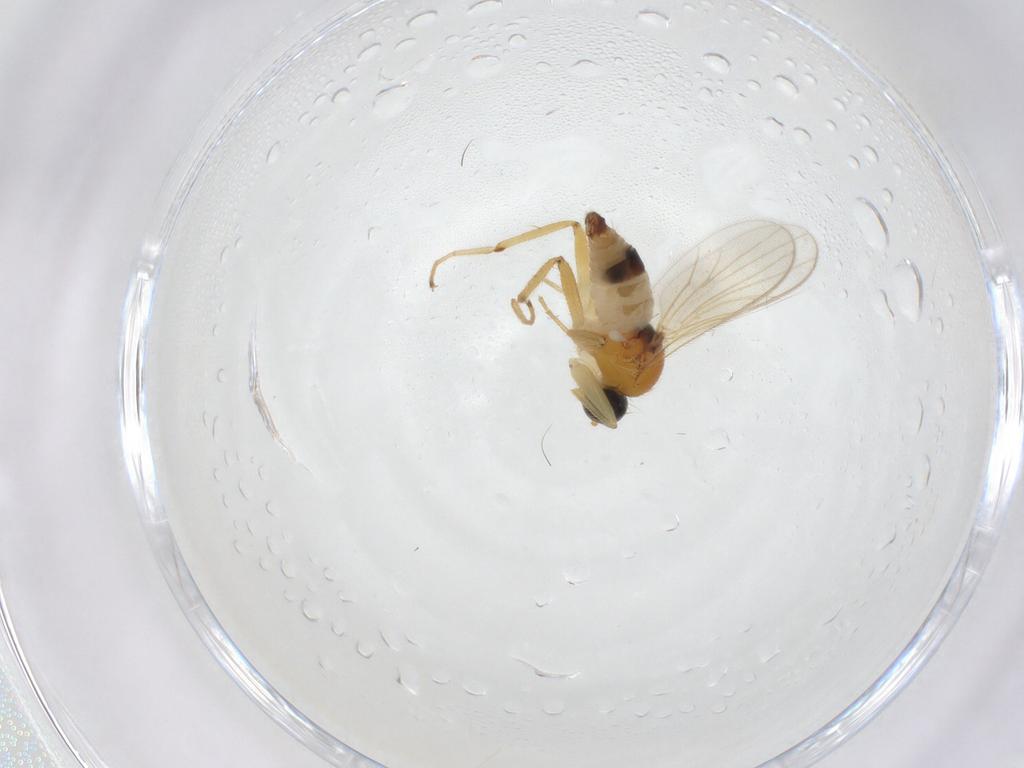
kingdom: Animalia
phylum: Arthropoda
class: Insecta
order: Diptera
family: Hybotidae
